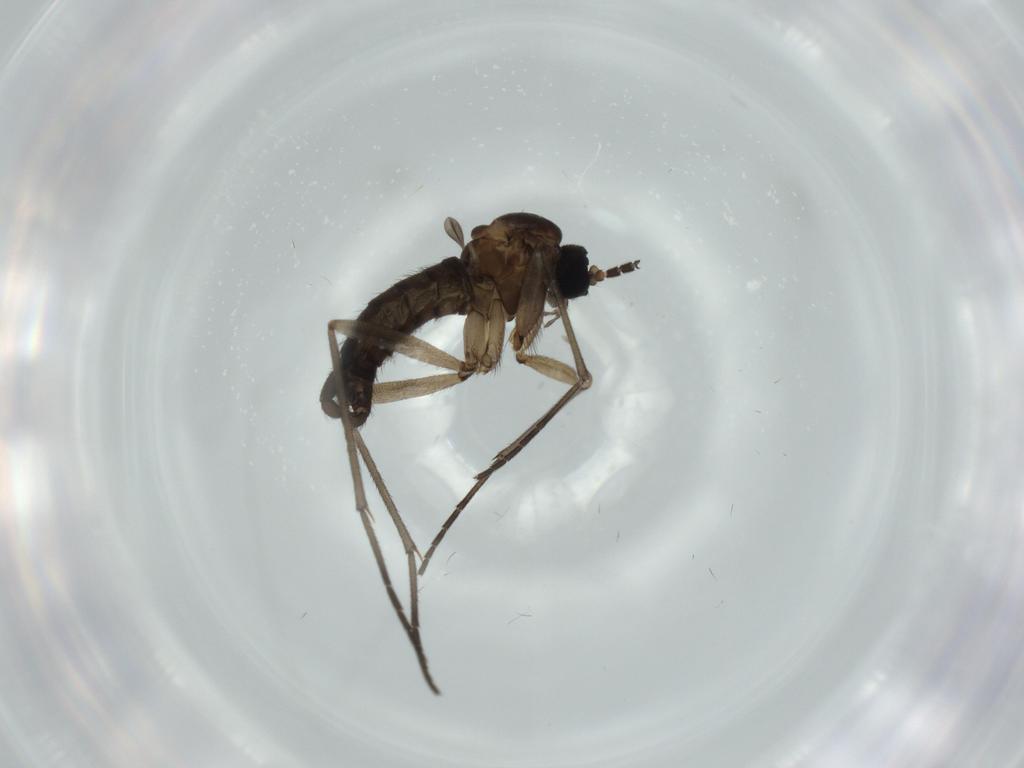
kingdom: Animalia
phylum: Arthropoda
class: Insecta
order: Diptera
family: Sciaridae
